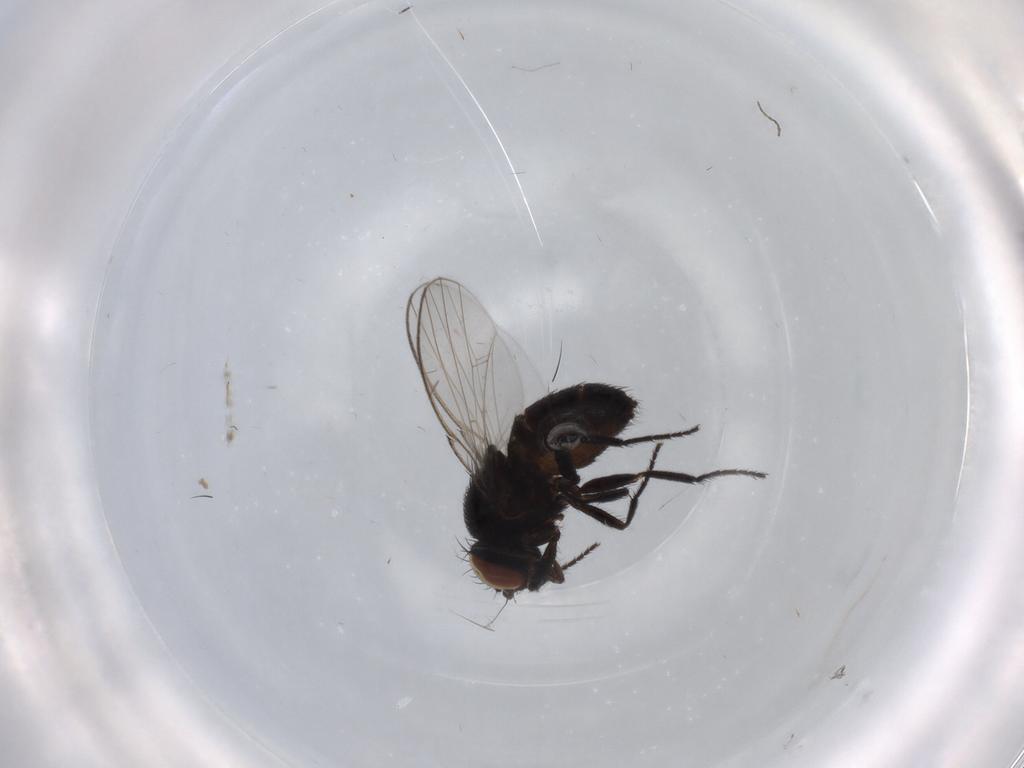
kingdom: Animalia
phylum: Arthropoda
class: Insecta
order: Diptera
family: Milichiidae
